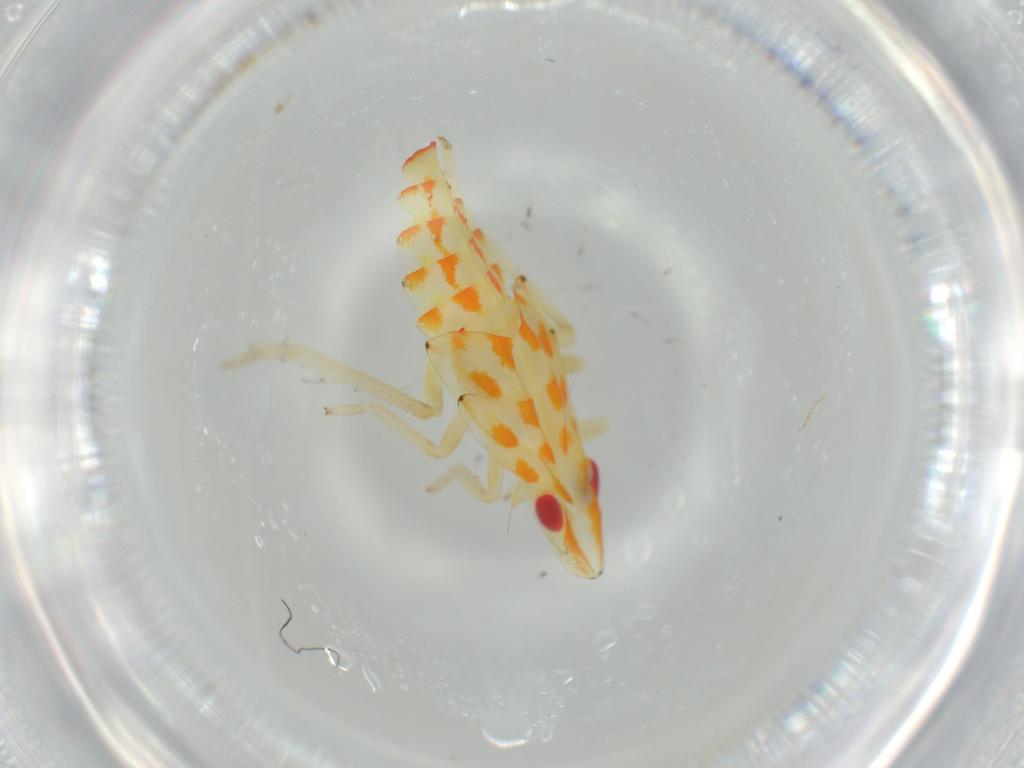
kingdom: Animalia
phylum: Arthropoda
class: Insecta
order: Hemiptera
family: Tropiduchidae
